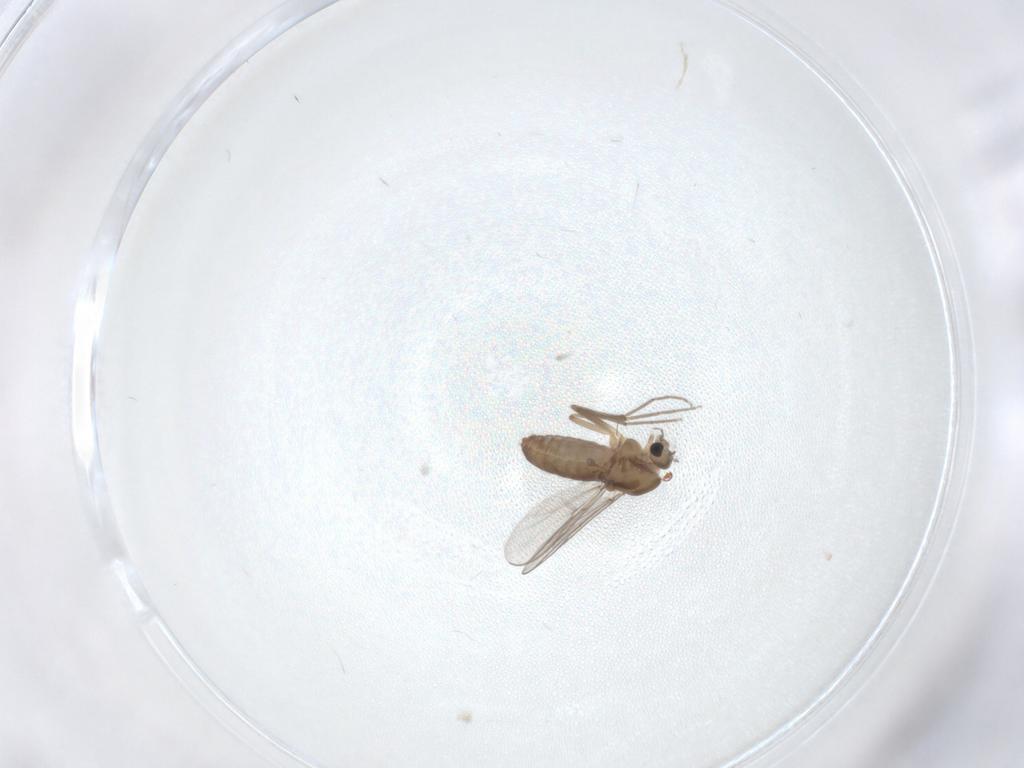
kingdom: Animalia
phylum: Arthropoda
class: Insecta
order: Diptera
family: Chironomidae
